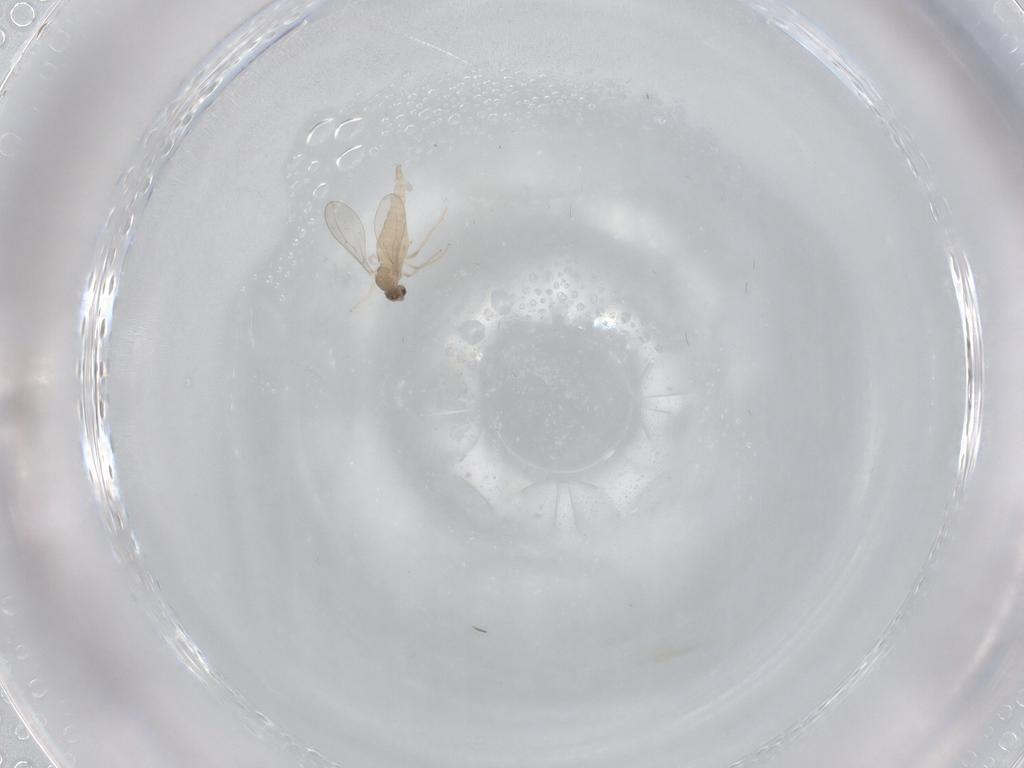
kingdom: Animalia
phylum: Arthropoda
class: Insecta
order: Diptera
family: Cecidomyiidae
